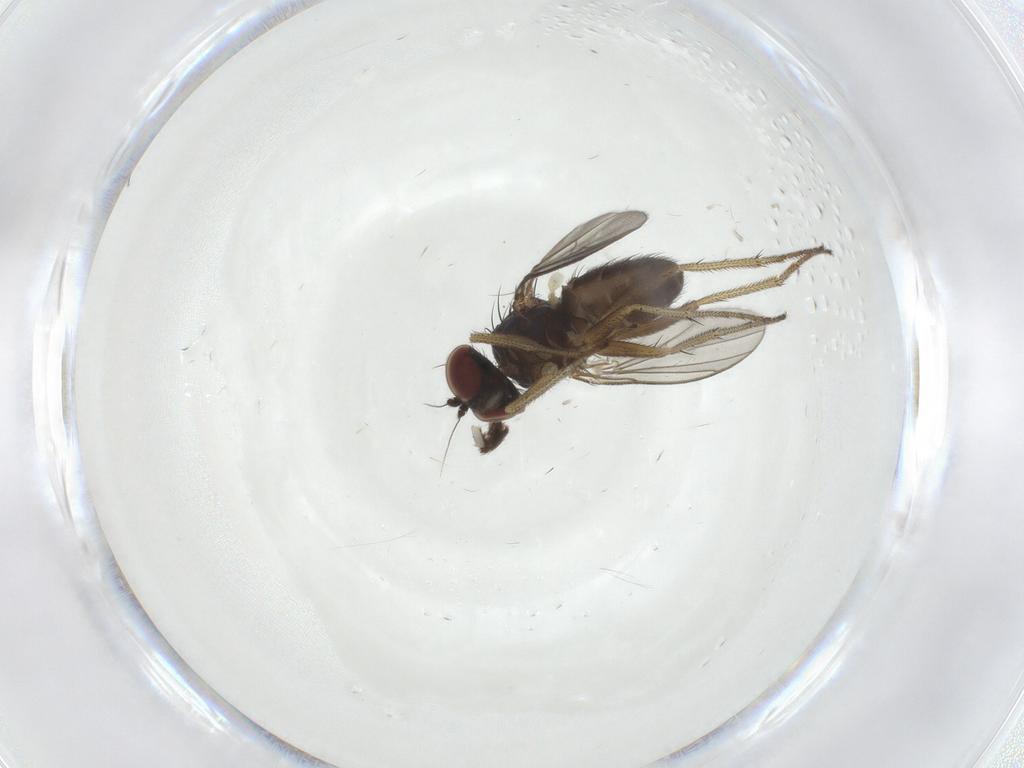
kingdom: Animalia
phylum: Arthropoda
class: Insecta
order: Diptera
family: Limoniidae
